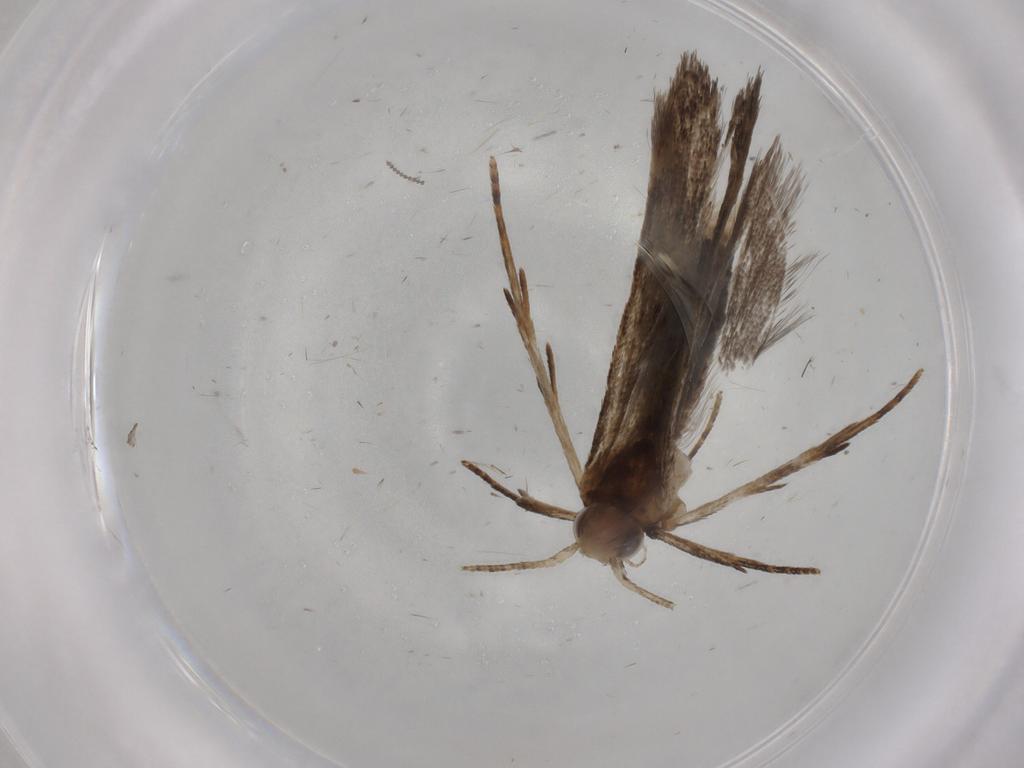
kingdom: Animalia
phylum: Arthropoda
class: Insecta
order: Lepidoptera
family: Gelechiidae
